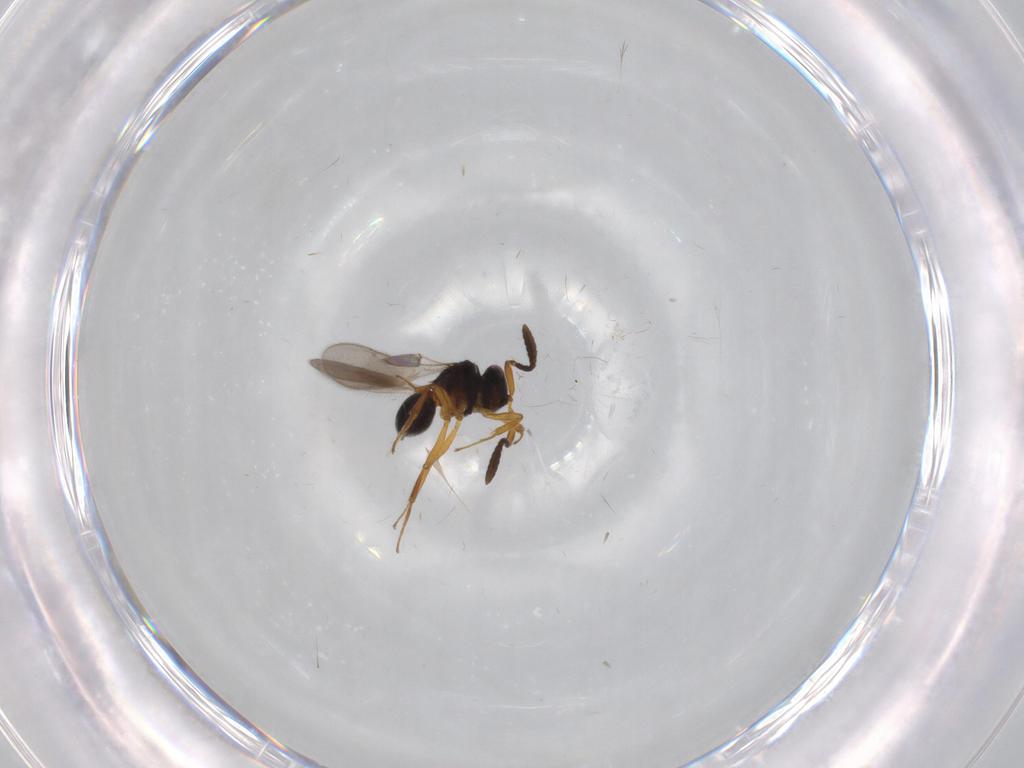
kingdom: Animalia
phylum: Arthropoda
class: Insecta
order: Hymenoptera
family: Scelionidae
